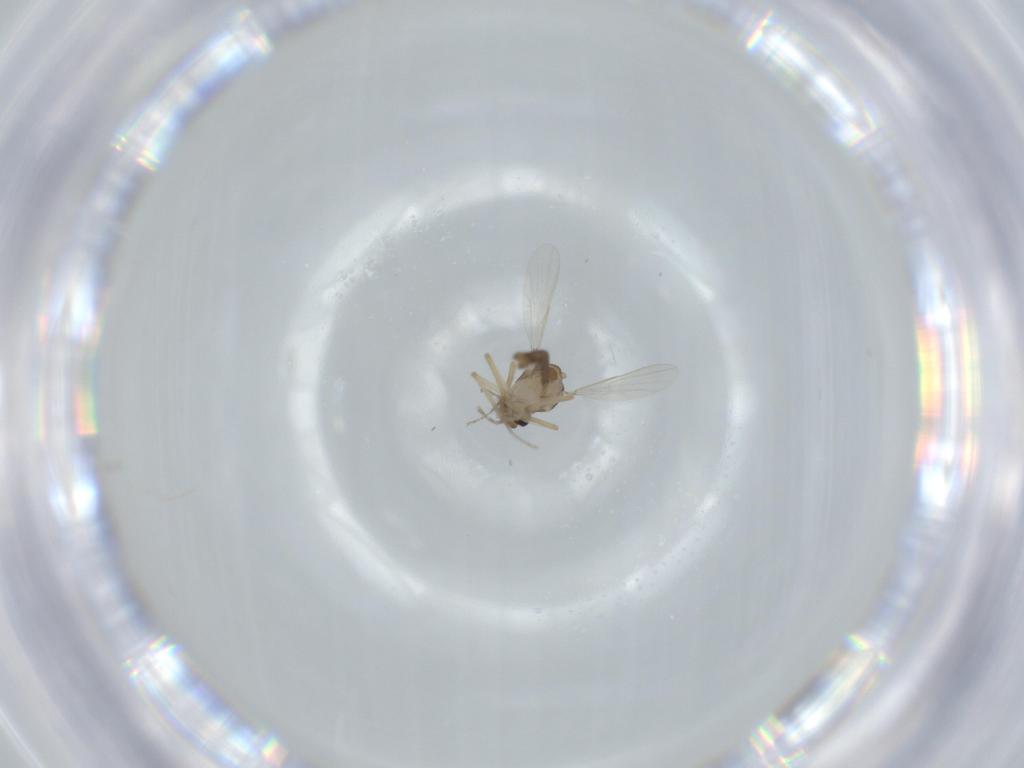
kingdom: Animalia
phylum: Arthropoda
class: Insecta
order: Diptera
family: Ceratopogonidae
